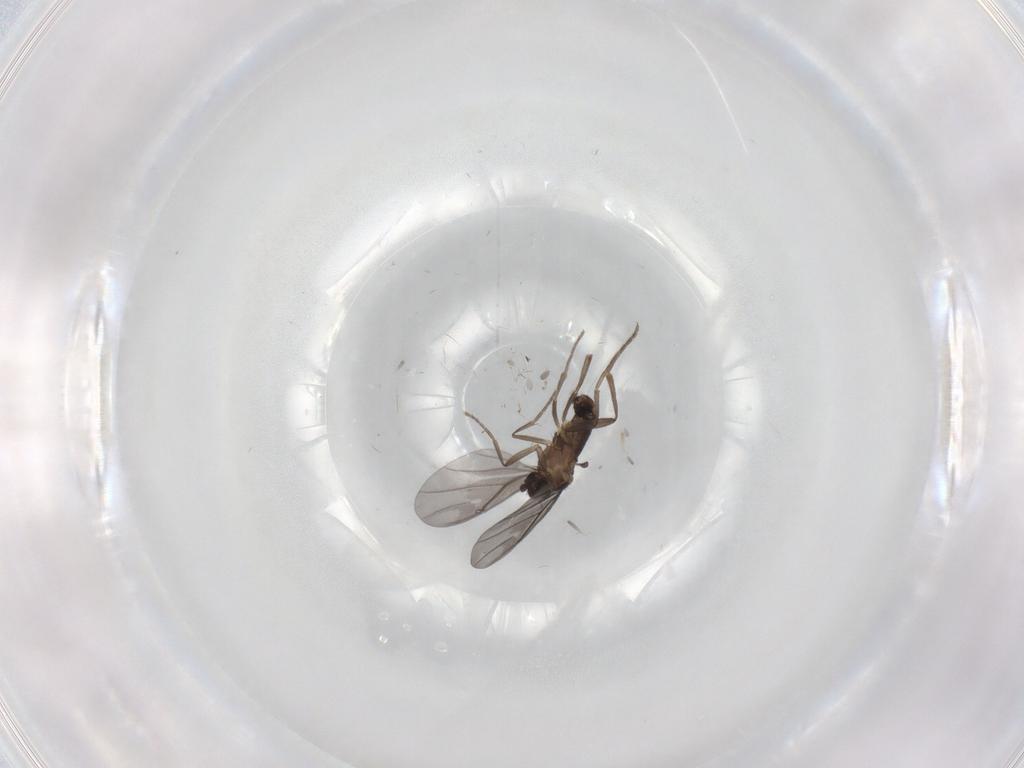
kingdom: Animalia
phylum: Arthropoda
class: Insecta
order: Diptera
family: Phoridae
